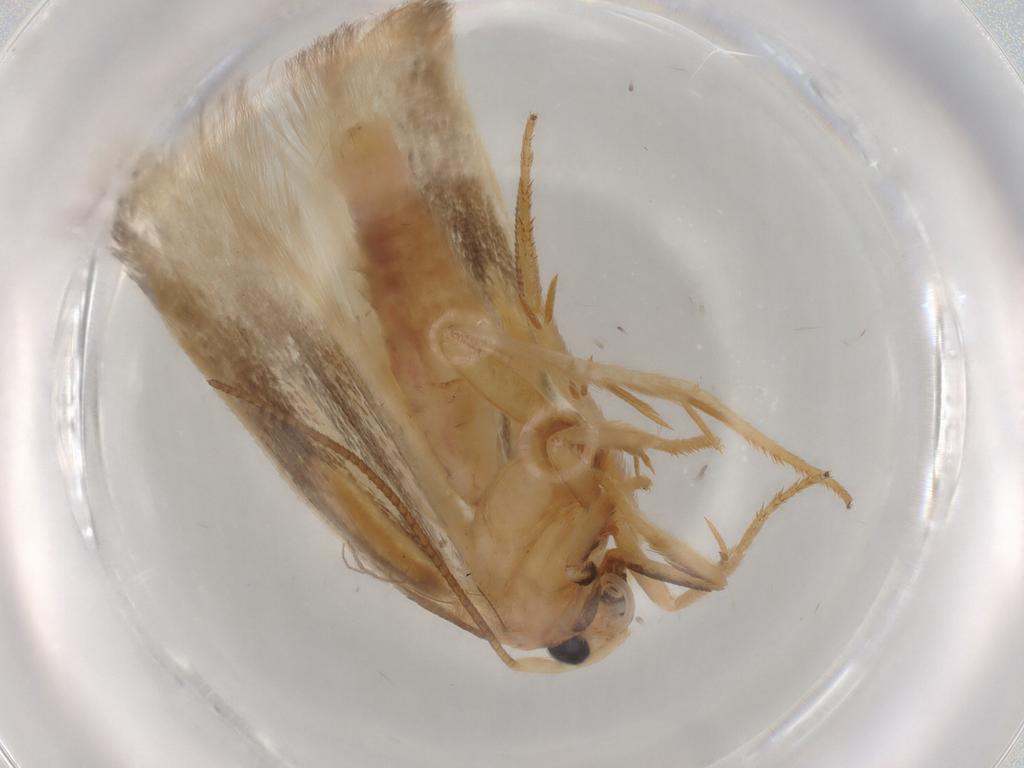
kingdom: Animalia
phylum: Arthropoda
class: Insecta
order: Lepidoptera
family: Geometridae
